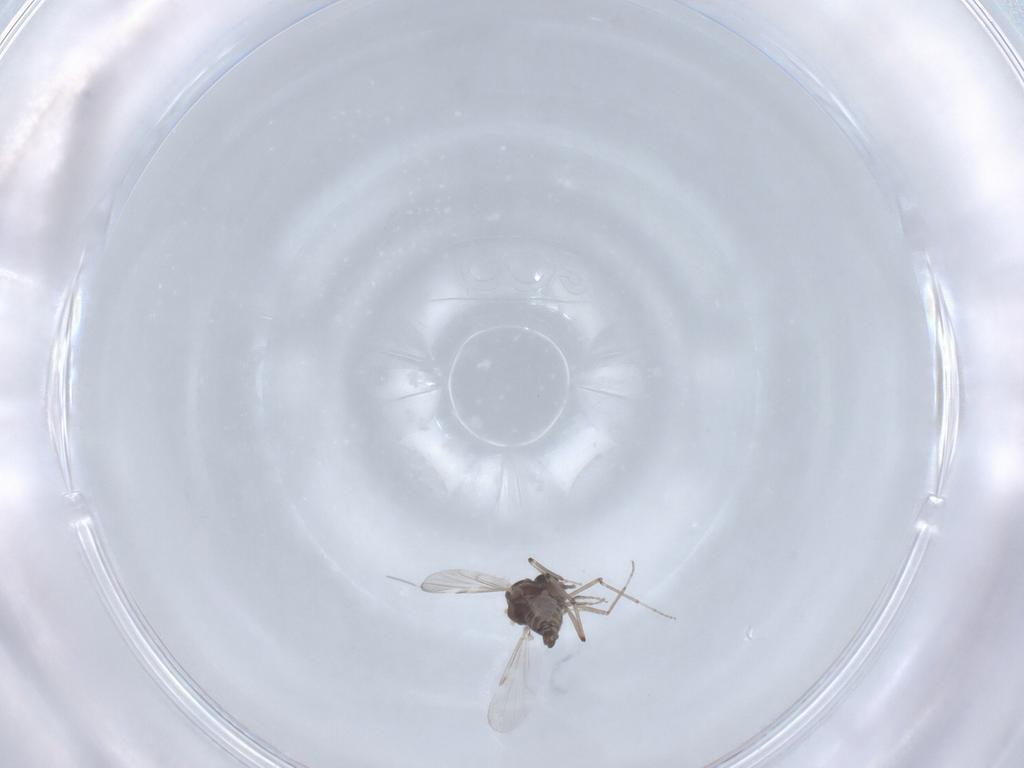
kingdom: Animalia
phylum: Arthropoda
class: Insecta
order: Diptera
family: Ceratopogonidae
